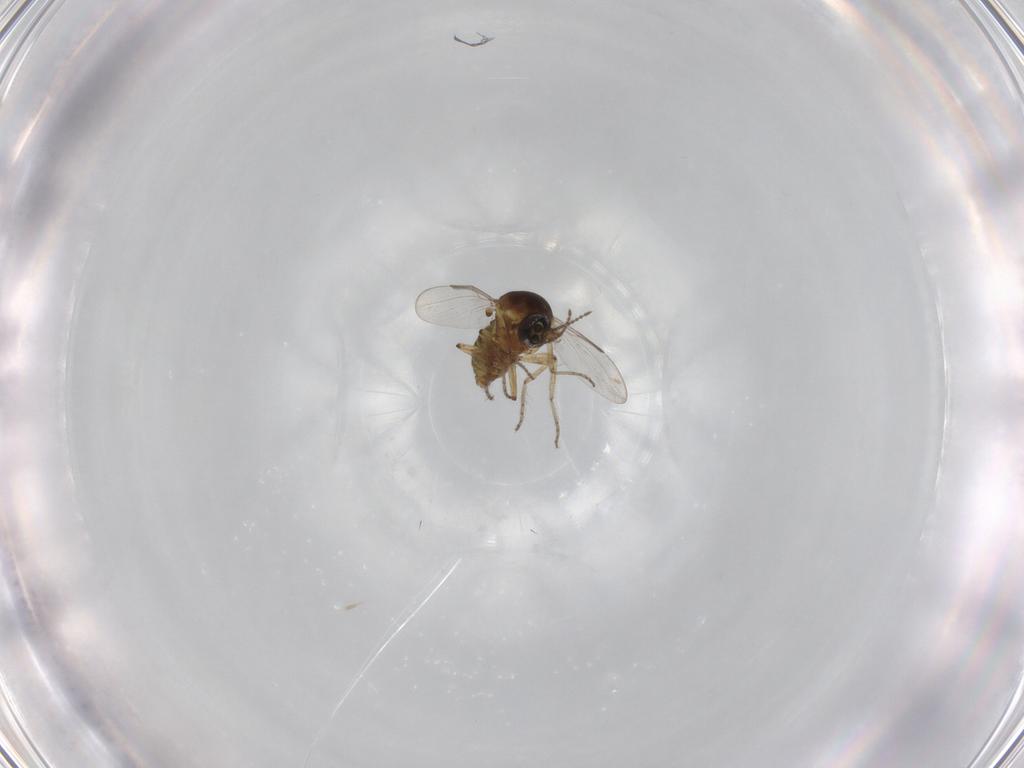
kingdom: Animalia
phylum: Arthropoda
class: Insecta
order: Diptera
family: Ceratopogonidae
